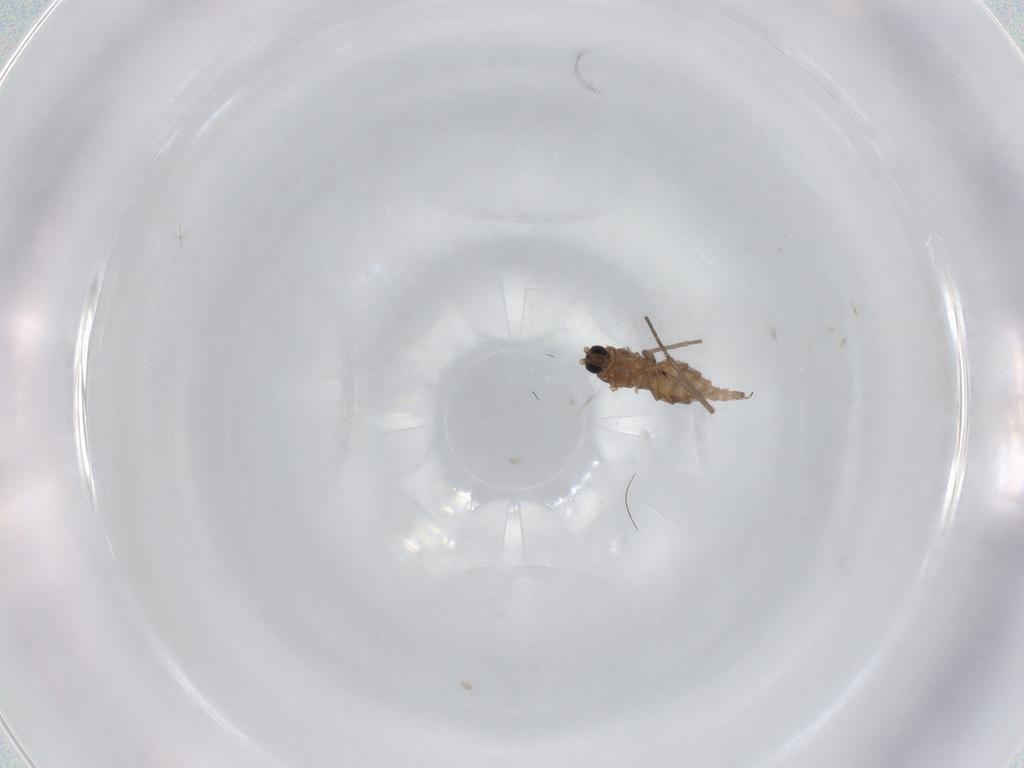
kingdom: Animalia
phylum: Arthropoda
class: Insecta
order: Diptera
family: Sciaridae
